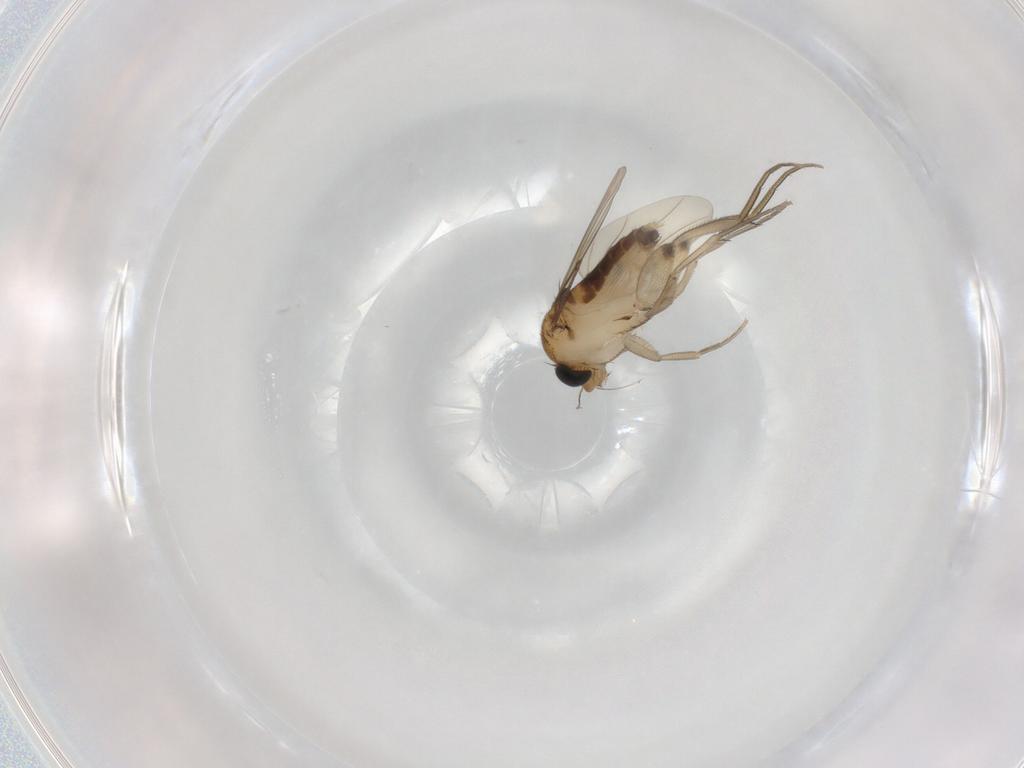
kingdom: Animalia
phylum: Arthropoda
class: Insecta
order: Diptera
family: Phoridae
